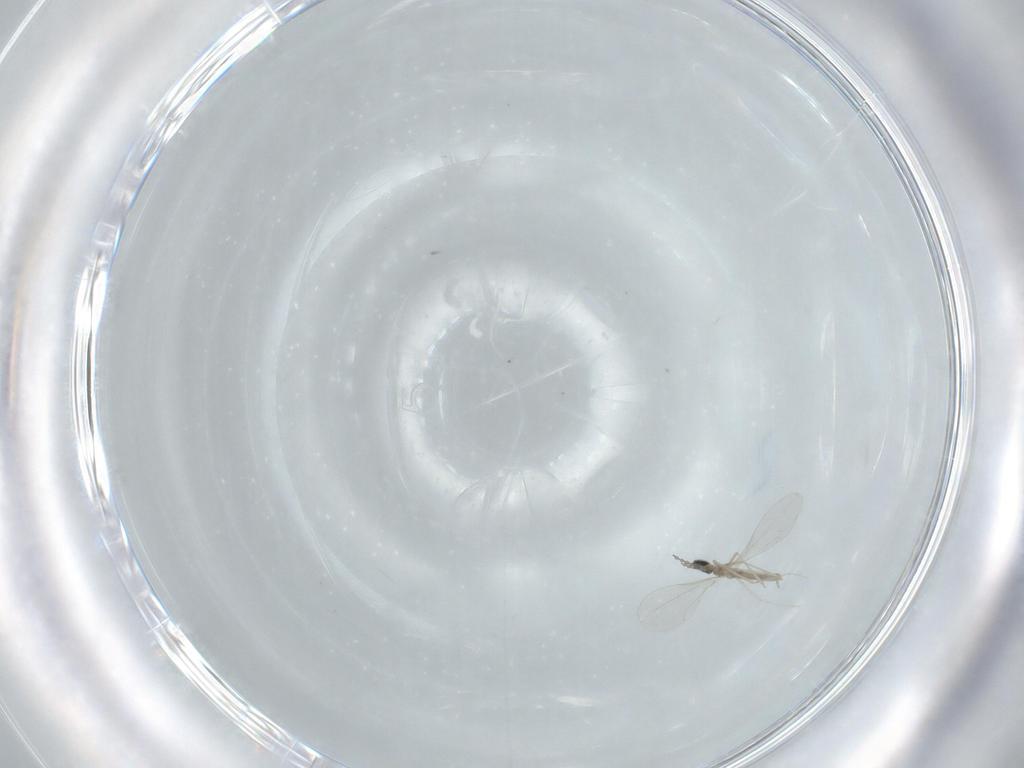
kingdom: Animalia
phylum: Arthropoda
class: Insecta
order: Diptera
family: Cecidomyiidae
